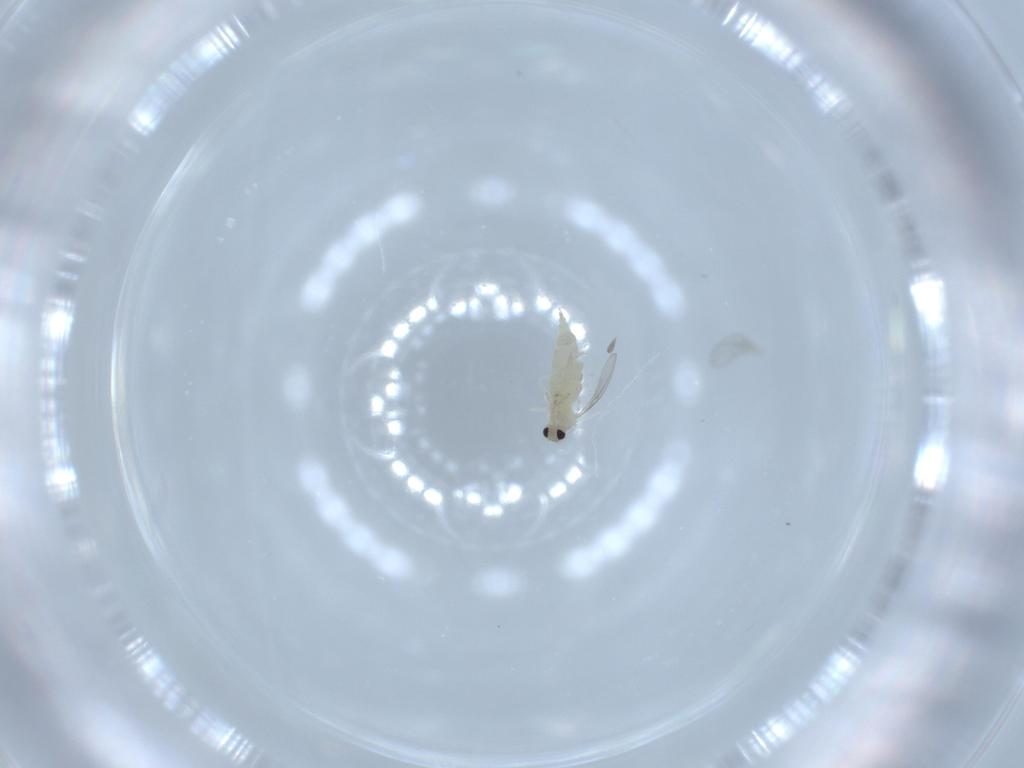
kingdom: Animalia
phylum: Arthropoda
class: Insecta
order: Diptera
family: Cecidomyiidae
